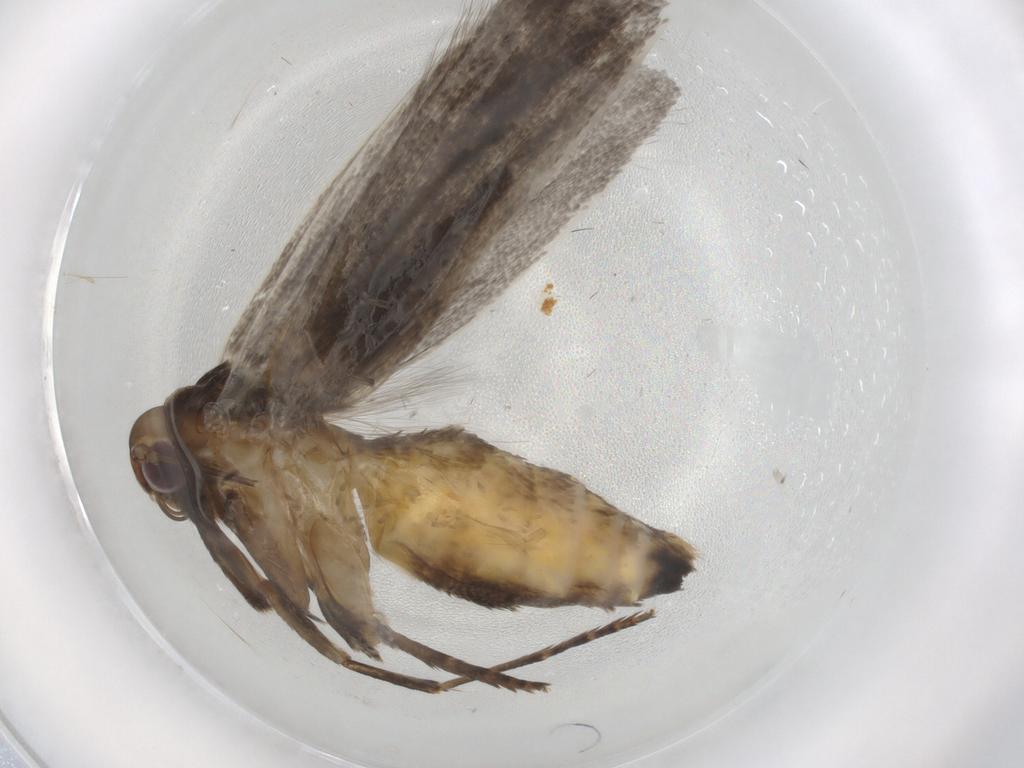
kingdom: Animalia
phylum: Arthropoda
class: Insecta
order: Lepidoptera
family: Epermeniidae
